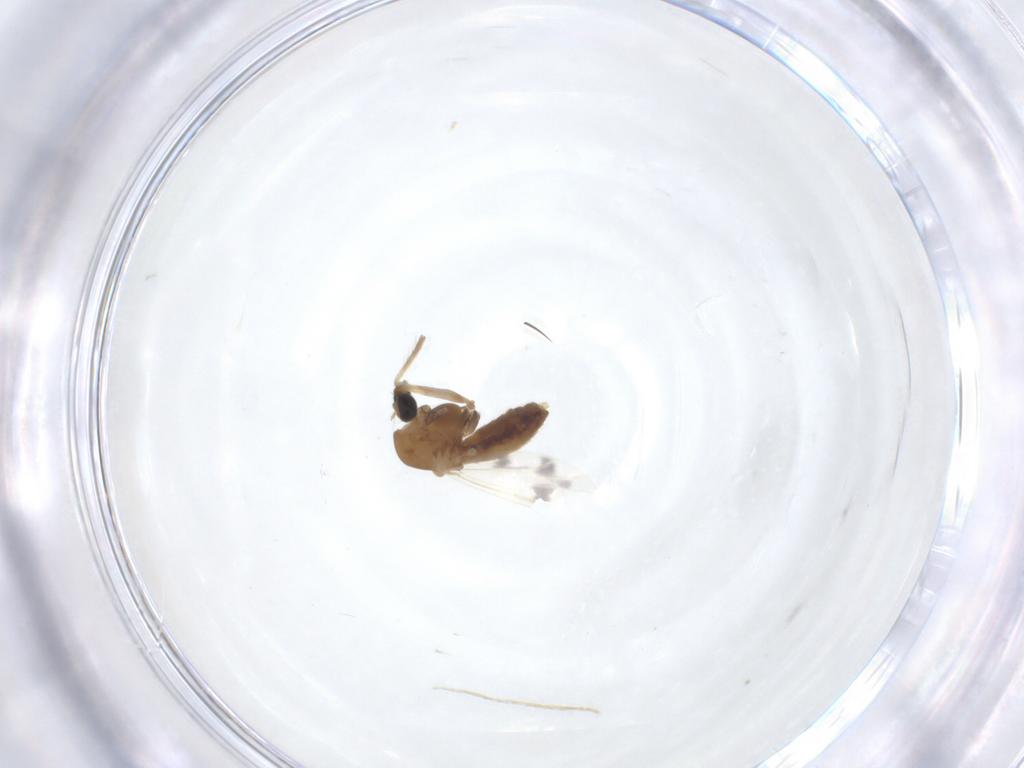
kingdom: Animalia
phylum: Arthropoda
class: Insecta
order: Diptera
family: Chironomidae
